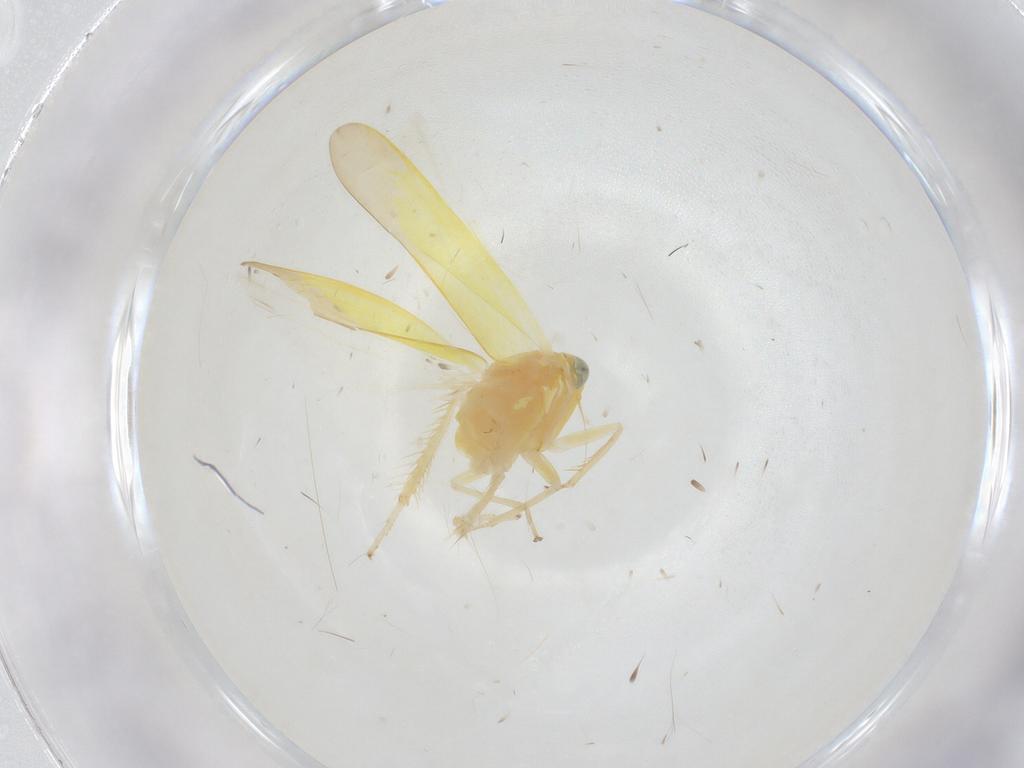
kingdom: Animalia
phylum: Arthropoda
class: Insecta
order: Hemiptera
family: Cicadellidae
